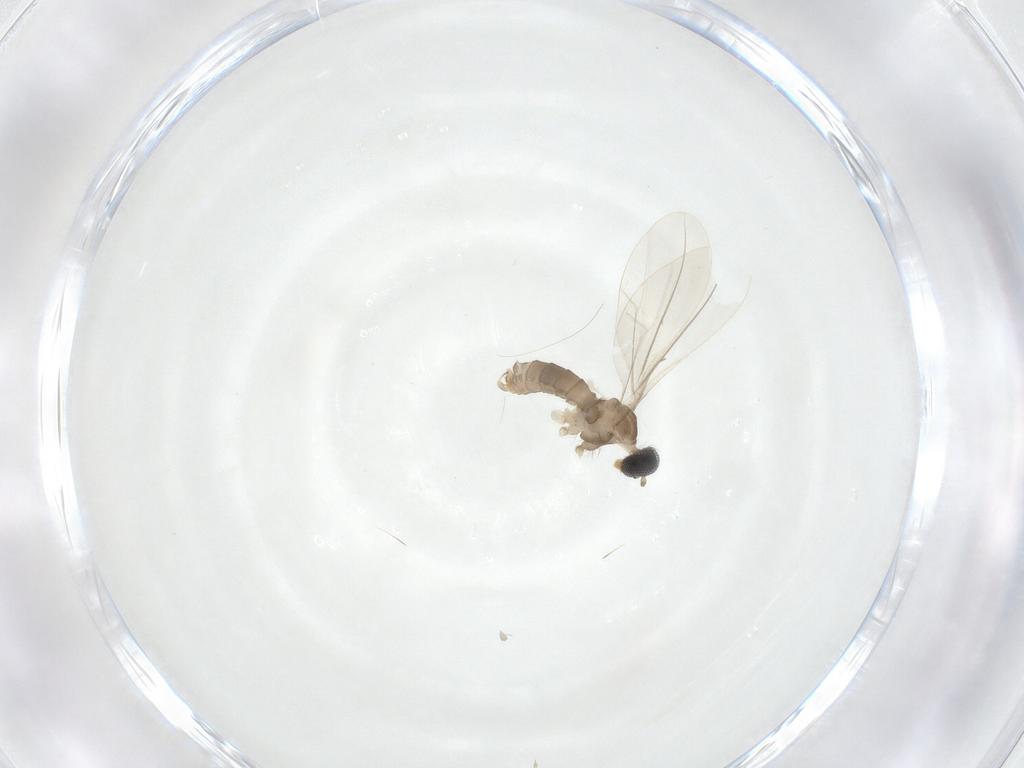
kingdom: Animalia
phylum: Arthropoda
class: Insecta
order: Diptera
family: Cecidomyiidae
